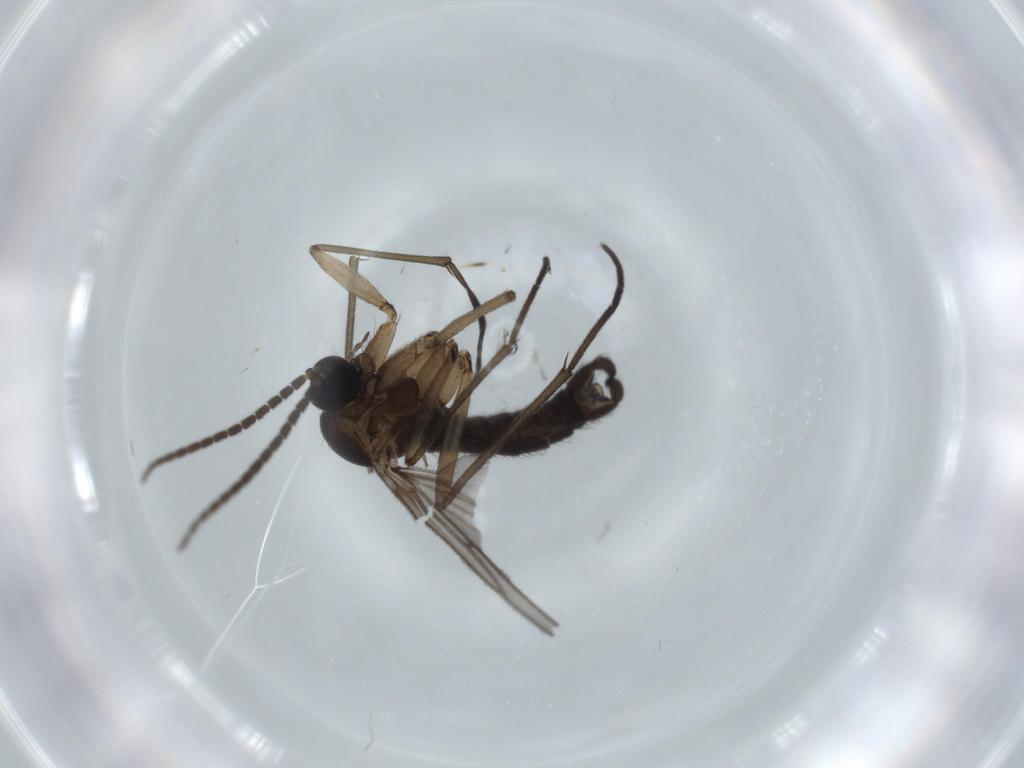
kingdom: Animalia
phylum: Arthropoda
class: Insecta
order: Diptera
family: Sciaridae
